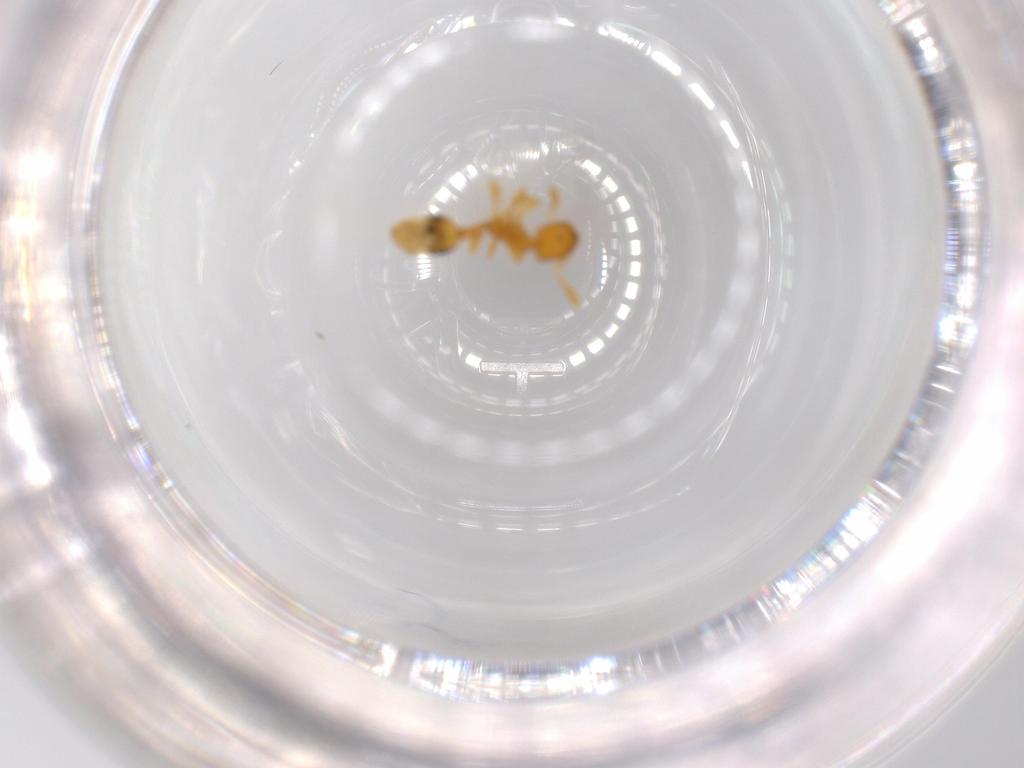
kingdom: Animalia
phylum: Arthropoda
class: Insecta
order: Hymenoptera
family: Formicidae
